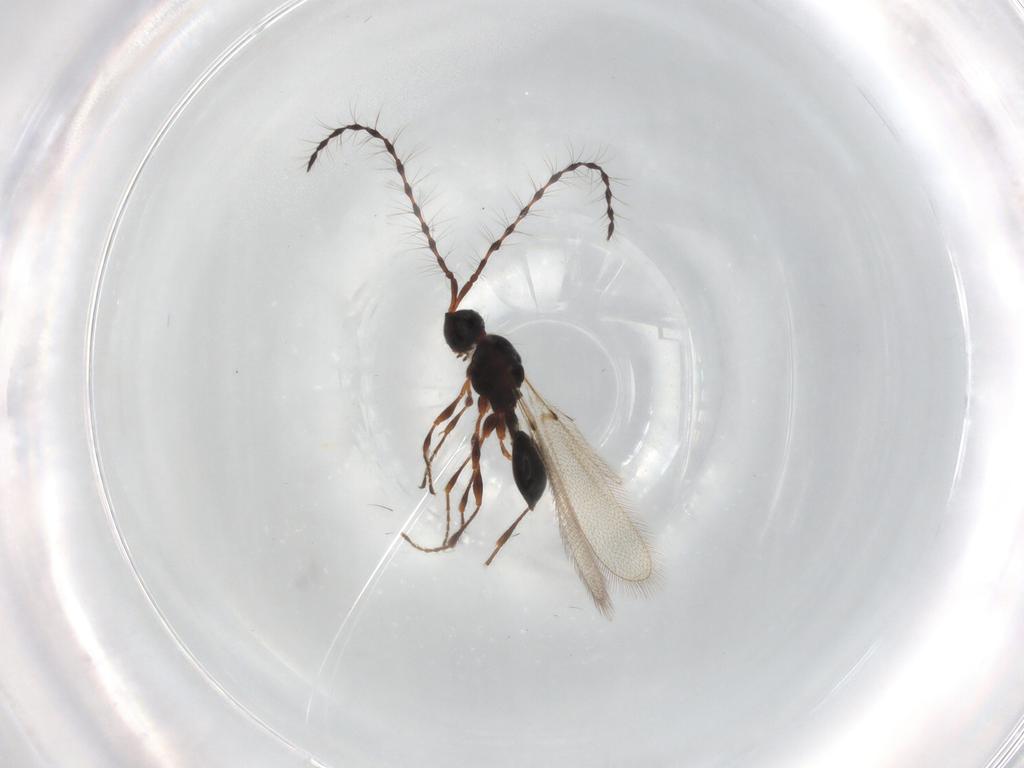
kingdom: Animalia
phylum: Arthropoda
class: Insecta
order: Hymenoptera
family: Diapriidae
